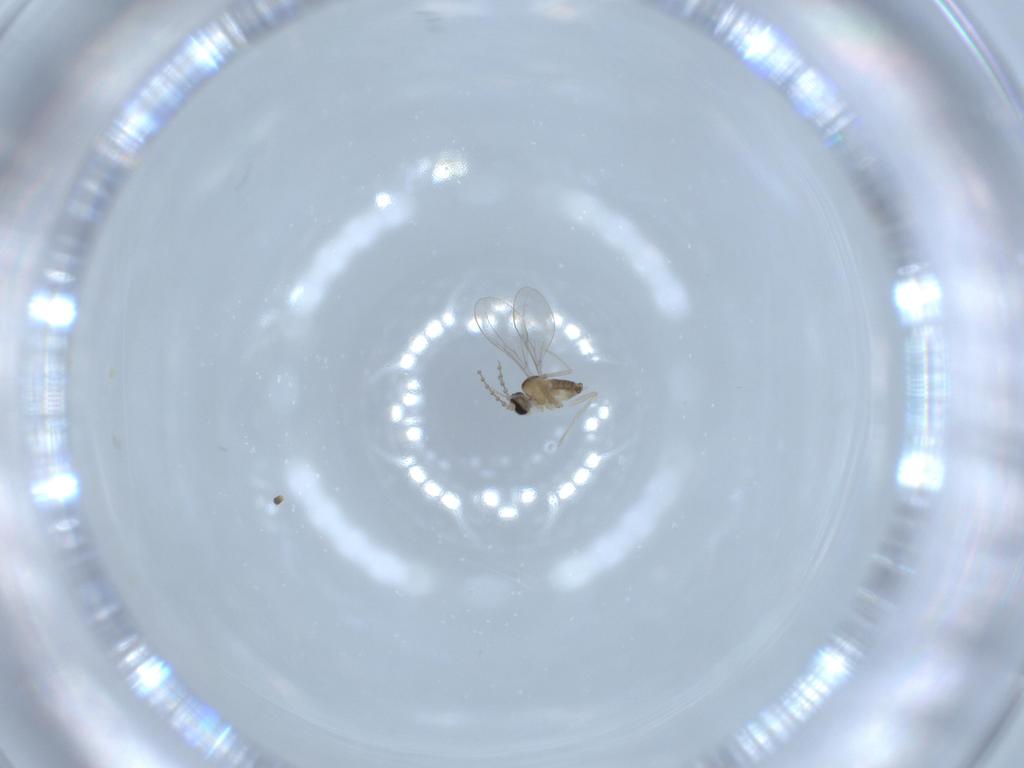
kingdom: Animalia
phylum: Arthropoda
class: Insecta
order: Diptera
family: Cecidomyiidae
